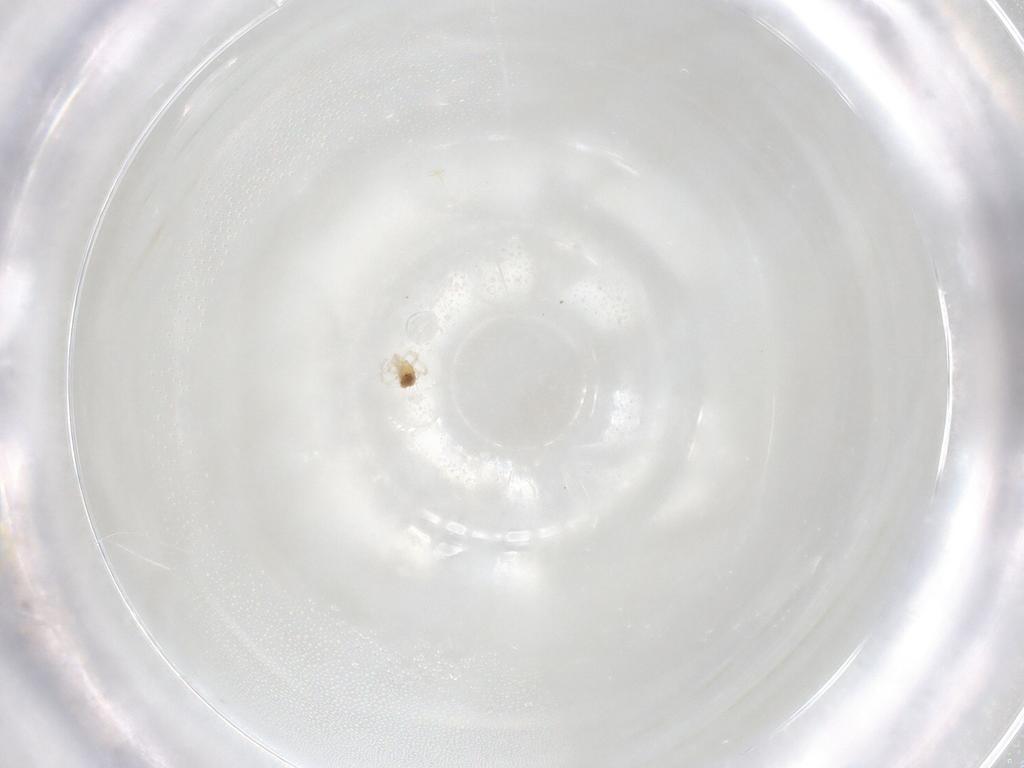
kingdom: Animalia
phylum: Arthropoda
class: Arachnida
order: Trombidiformes
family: Anystidae
